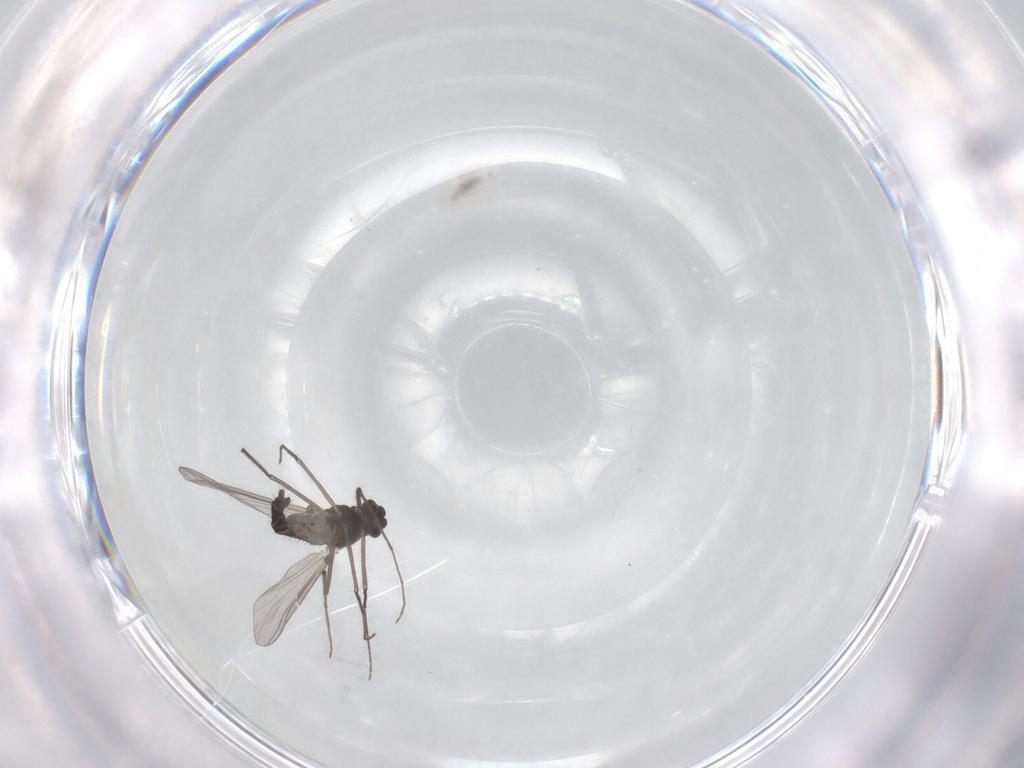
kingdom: Animalia
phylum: Arthropoda
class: Insecta
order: Diptera
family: Chironomidae
